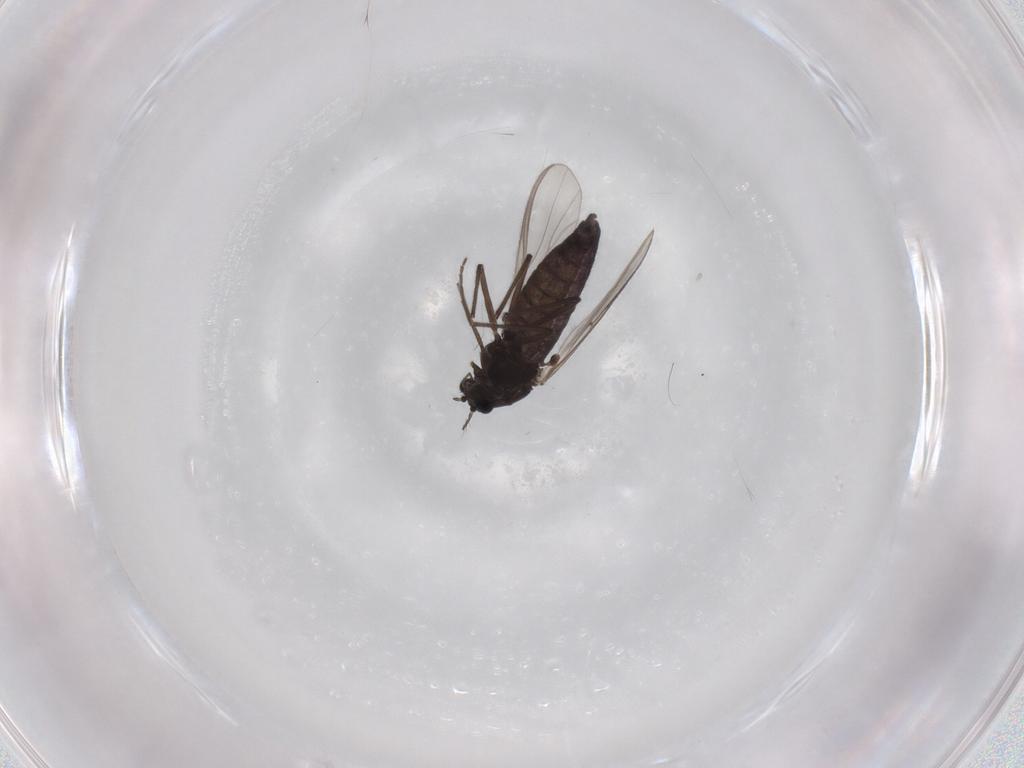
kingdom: Animalia
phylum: Arthropoda
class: Insecta
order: Diptera
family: Chironomidae
